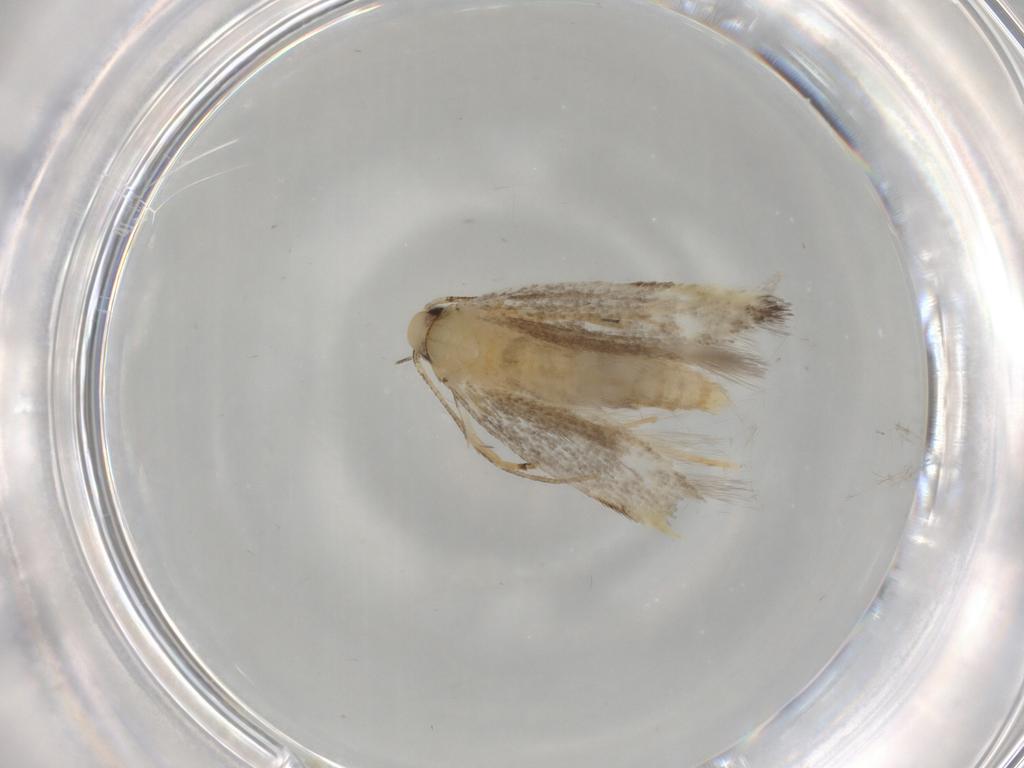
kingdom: Animalia
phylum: Arthropoda
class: Insecta
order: Lepidoptera
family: Autostichidae
